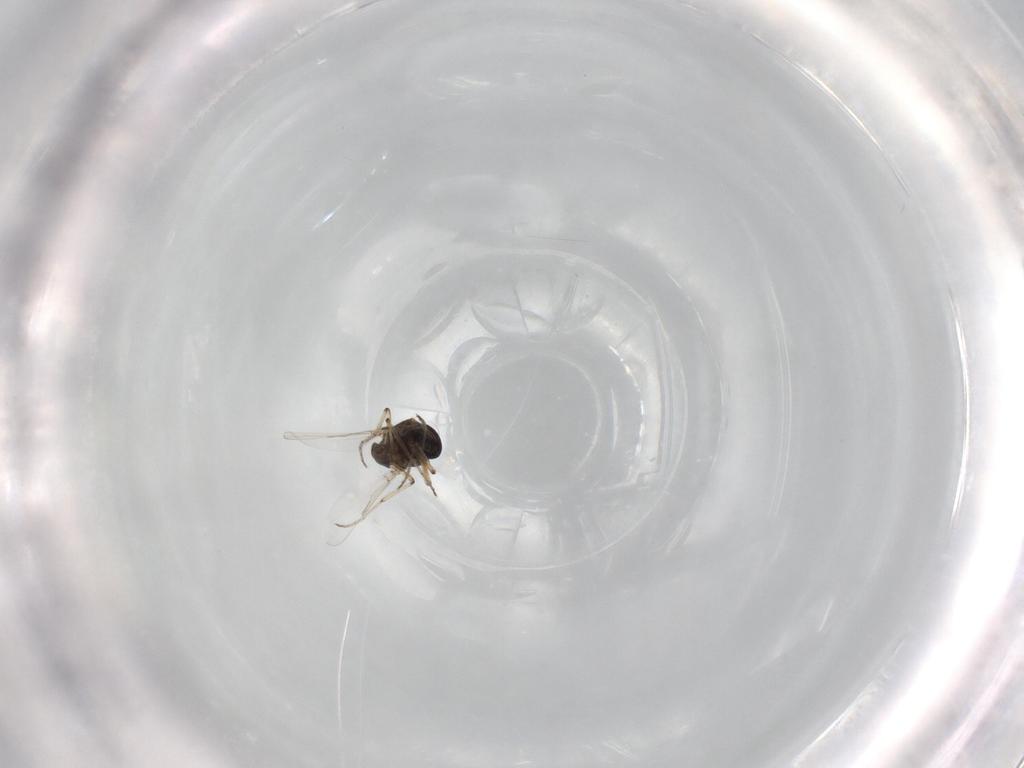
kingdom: Animalia
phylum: Arthropoda
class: Insecta
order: Diptera
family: Ceratopogonidae
